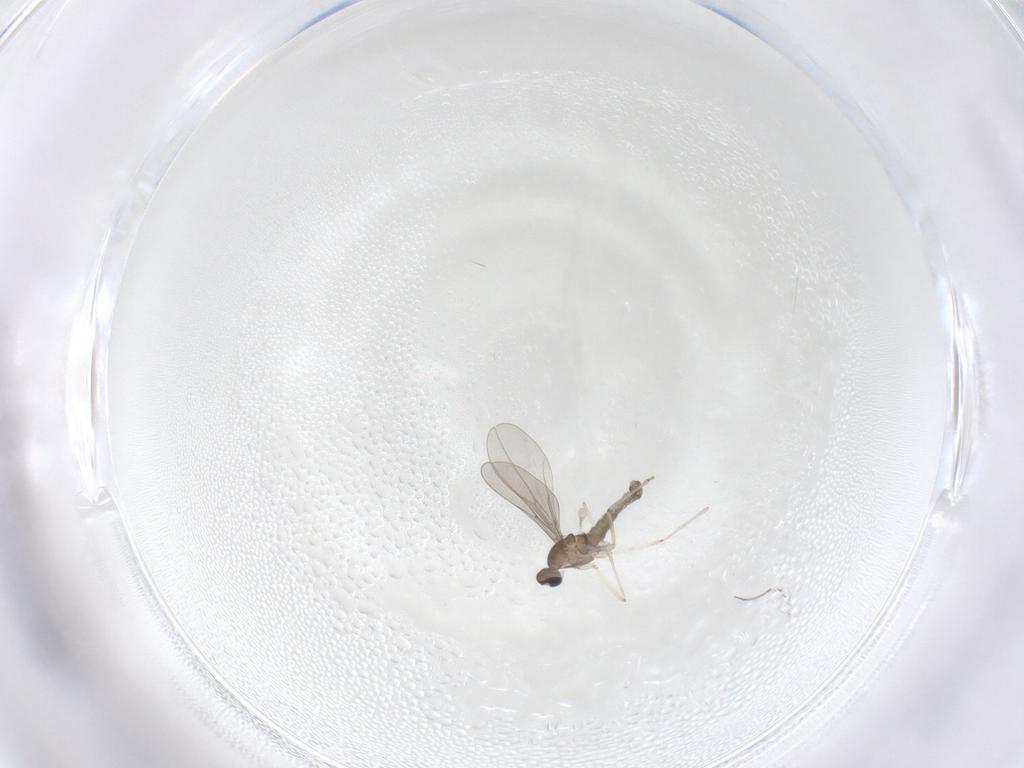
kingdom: Animalia
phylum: Arthropoda
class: Insecta
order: Diptera
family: Cecidomyiidae
